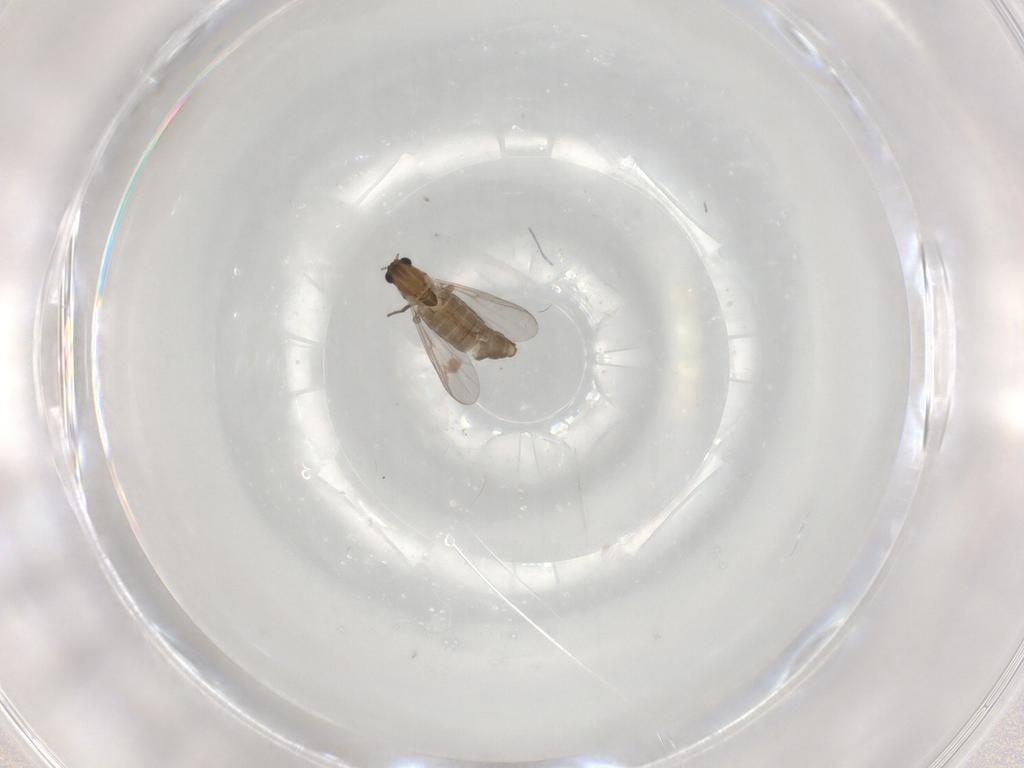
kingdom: Animalia
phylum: Arthropoda
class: Insecta
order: Diptera
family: Chironomidae
